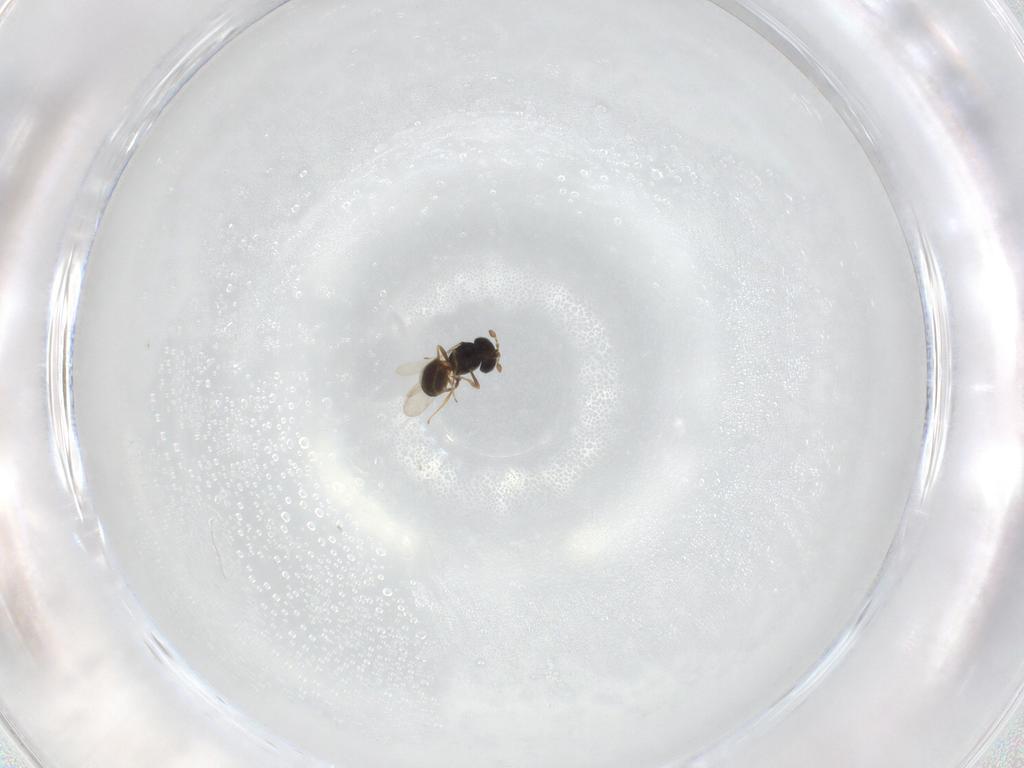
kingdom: Animalia
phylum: Arthropoda
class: Insecta
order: Hymenoptera
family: Scelionidae
